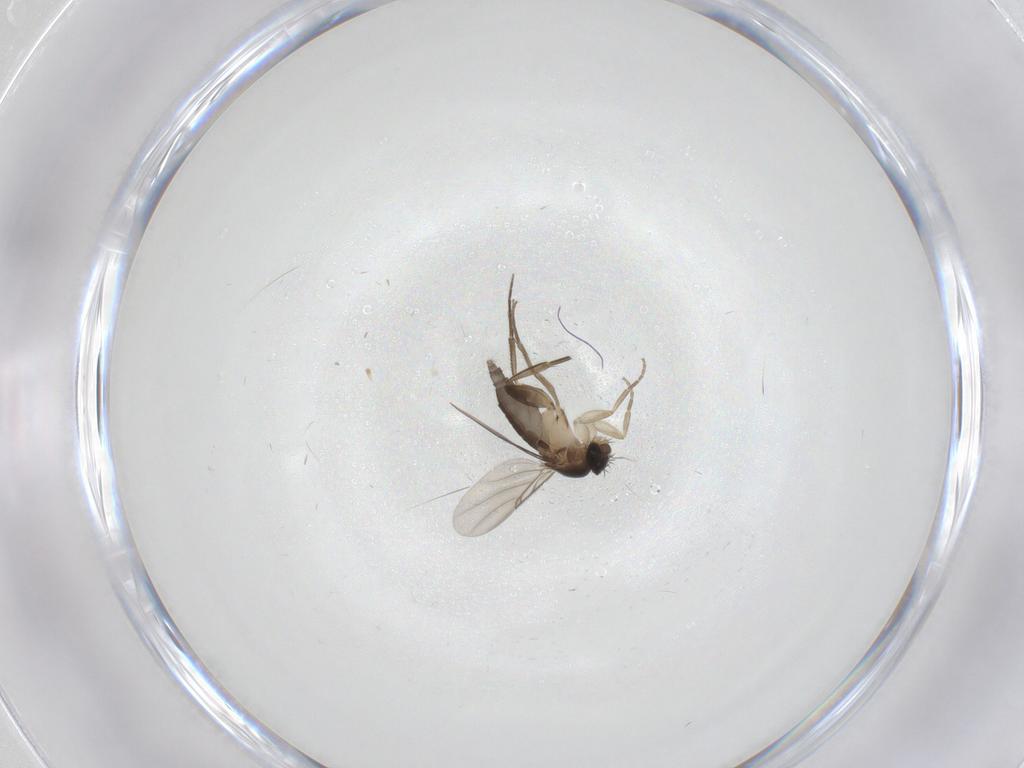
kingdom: Animalia
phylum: Arthropoda
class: Insecta
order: Diptera
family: Phoridae
